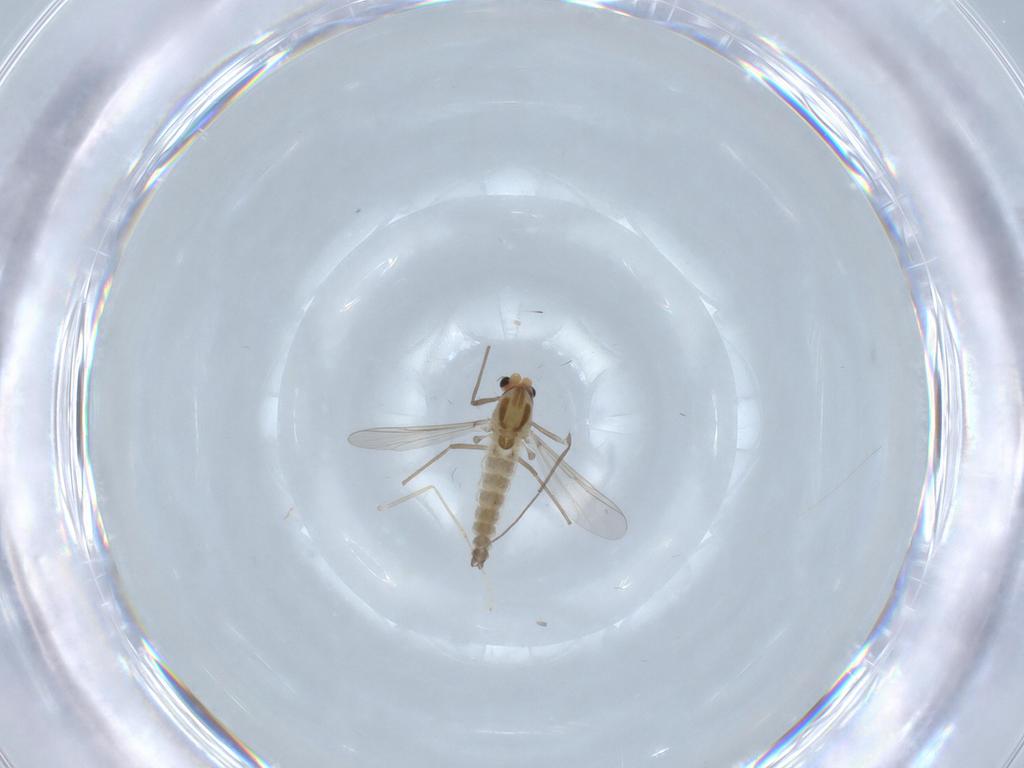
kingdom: Animalia
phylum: Arthropoda
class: Insecta
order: Diptera
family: Chironomidae
